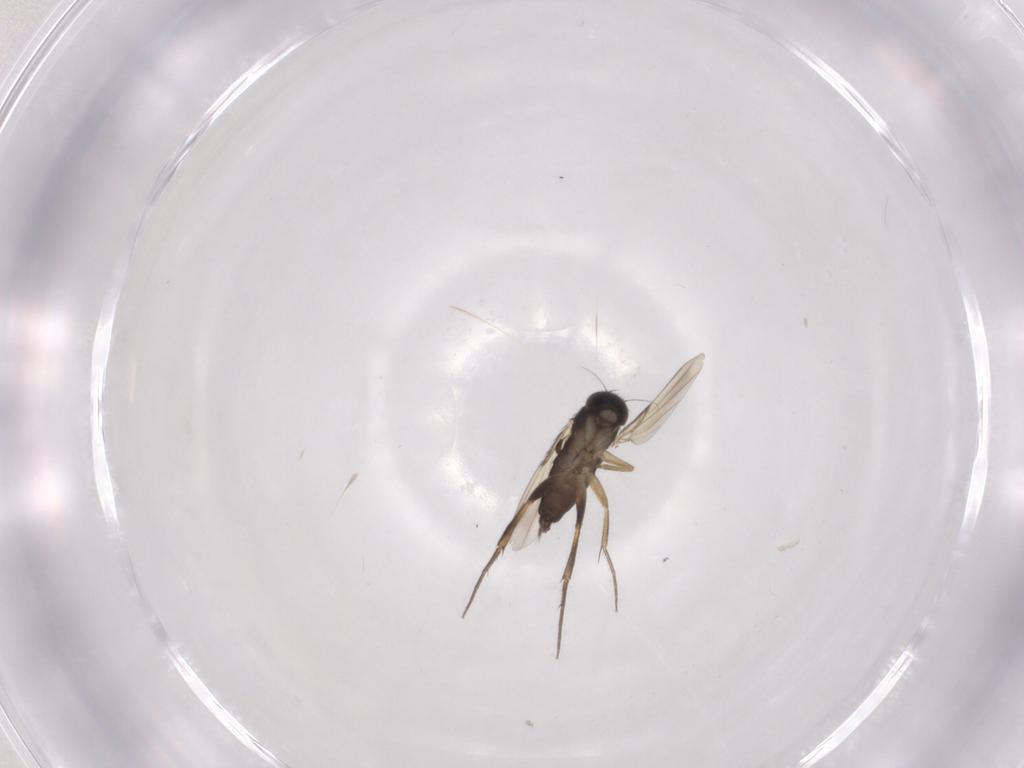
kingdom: Animalia
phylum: Arthropoda
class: Insecta
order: Diptera
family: Phoridae
